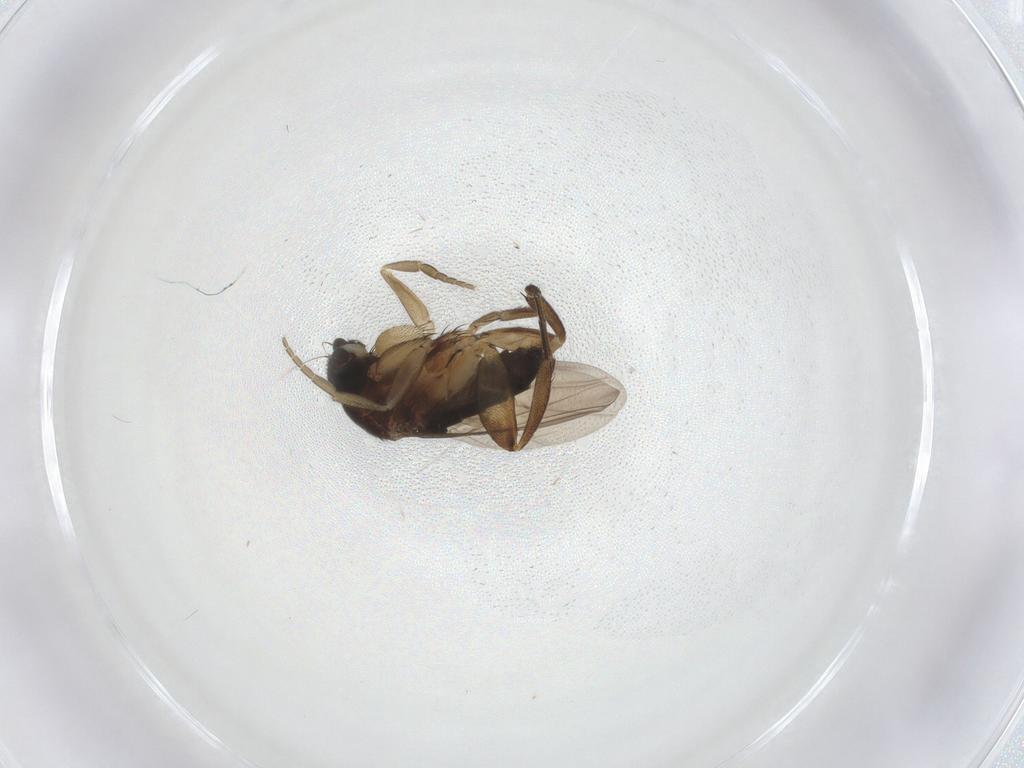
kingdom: Animalia
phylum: Arthropoda
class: Insecta
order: Diptera
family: Phoridae
